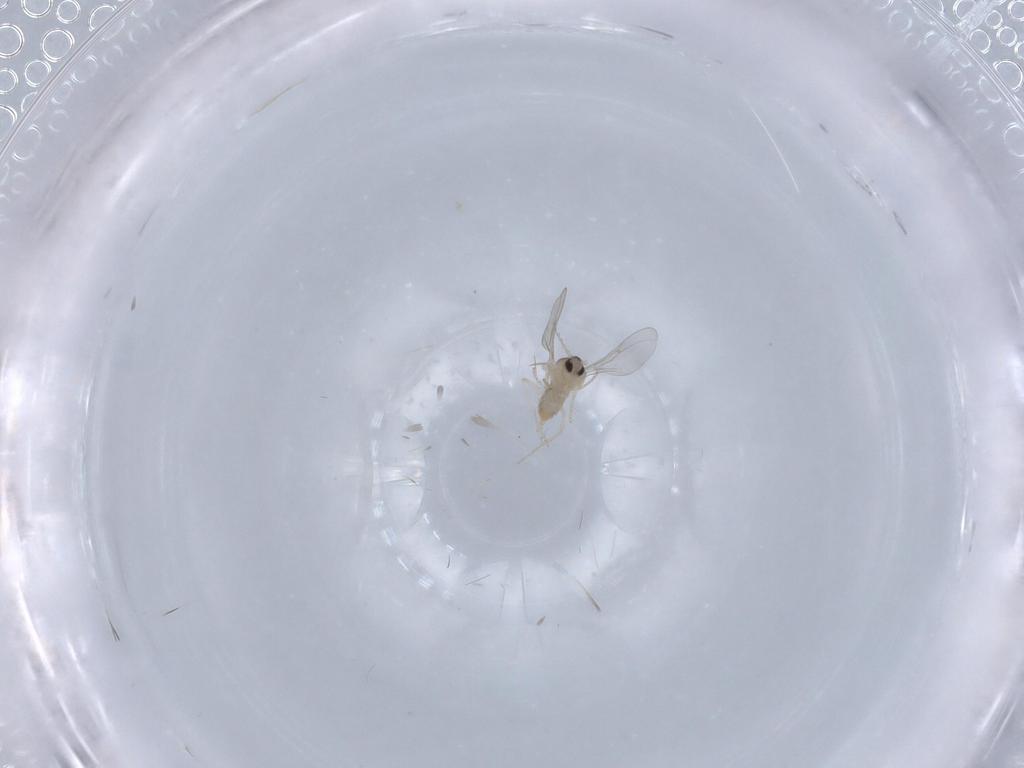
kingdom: Animalia
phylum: Arthropoda
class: Insecta
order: Diptera
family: Cecidomyiidae
